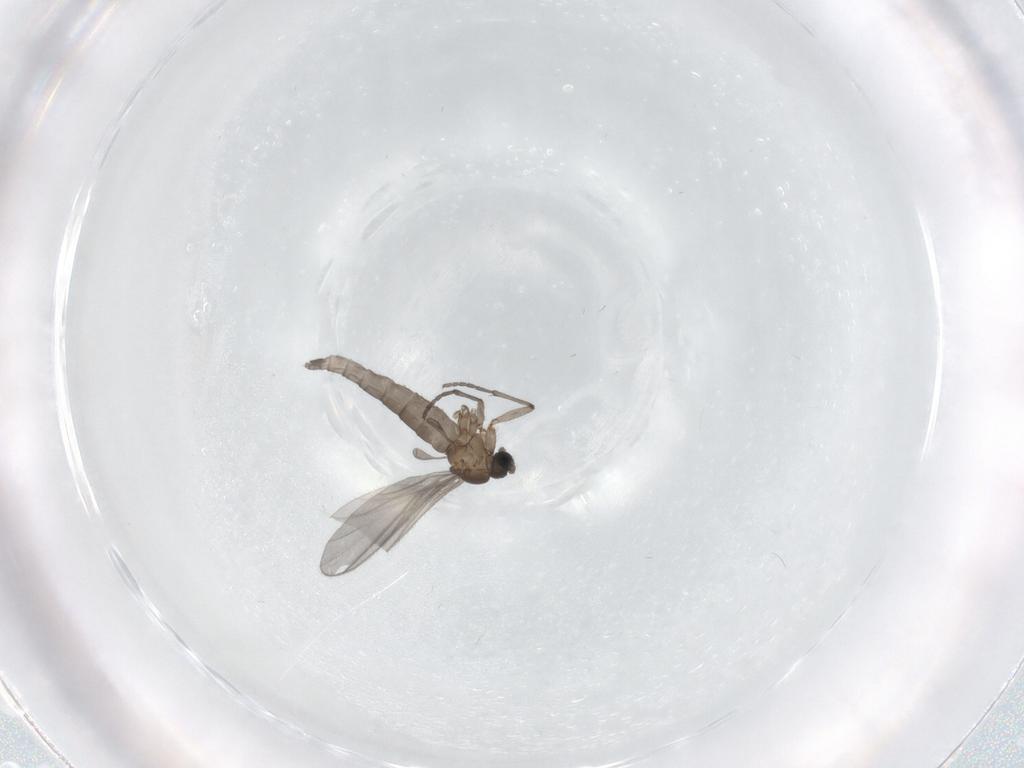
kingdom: Animalia
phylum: Arthropoda
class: Insecta
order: Diptera
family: Sciaridae
